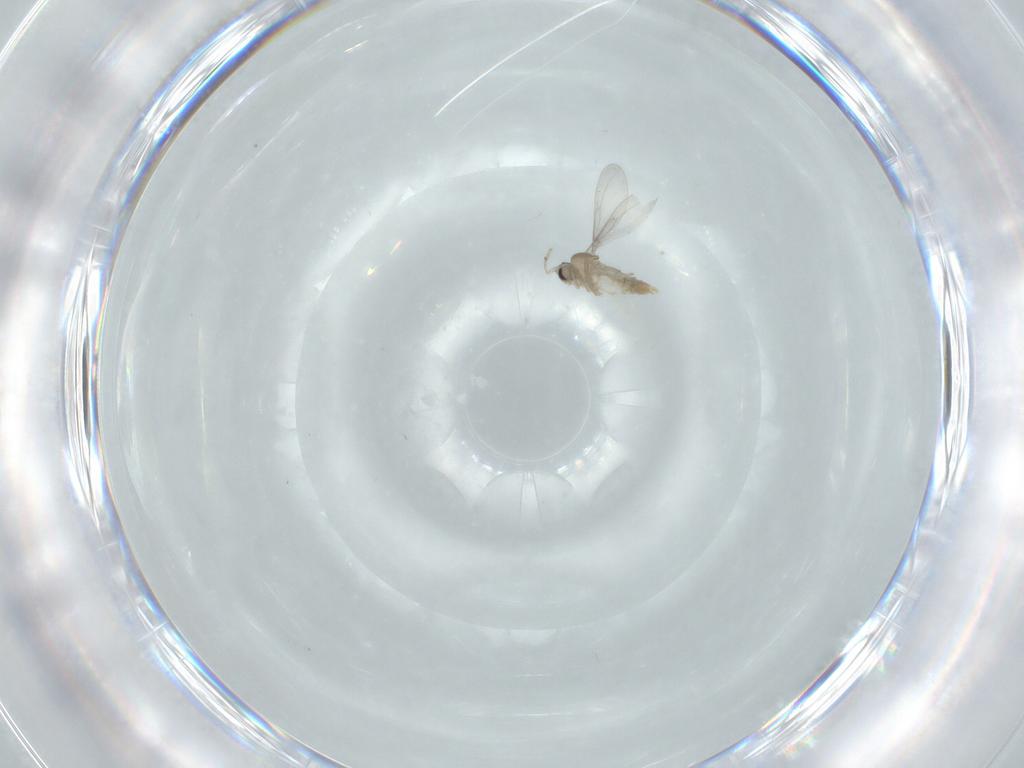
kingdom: Animalia
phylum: Arthropoda
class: Insecta
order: Diptera
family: Cecidomyiidae
